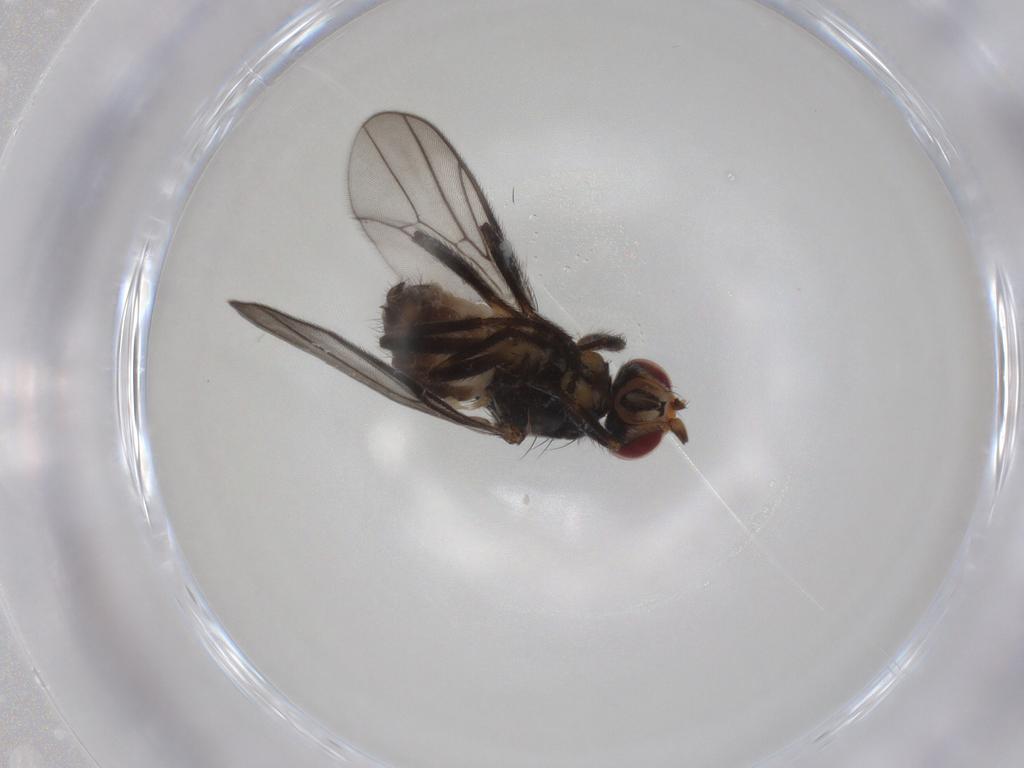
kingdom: Animalia
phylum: Arthropoda
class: Insecta
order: Diptera
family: Chloropidae
